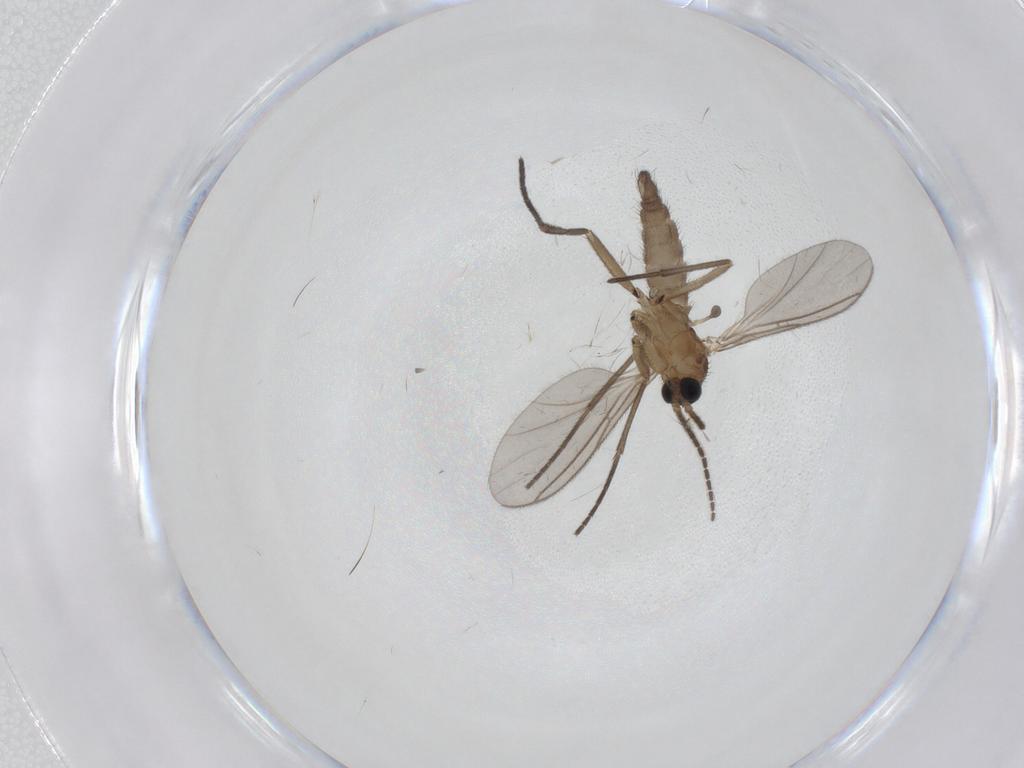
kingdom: Animalia
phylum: Arthropoda
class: Insecta
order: Diptera
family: Sciaridae
